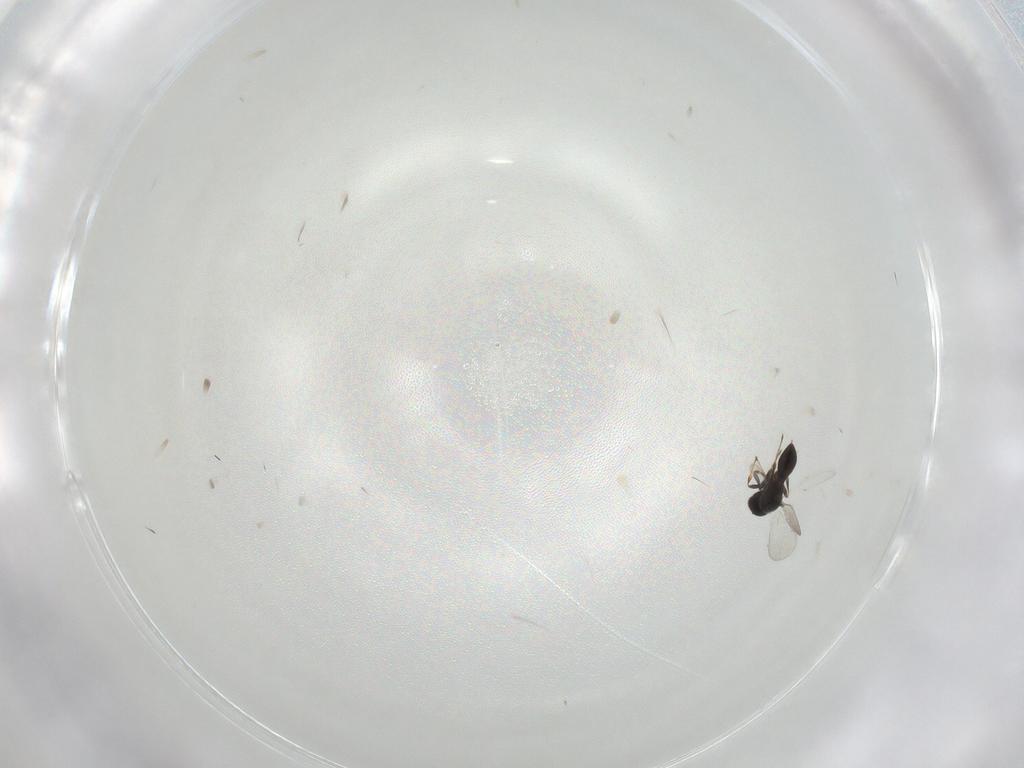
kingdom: Animalia
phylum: Arthropoda
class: Insecta
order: Hymenoptera
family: Platygastridae
